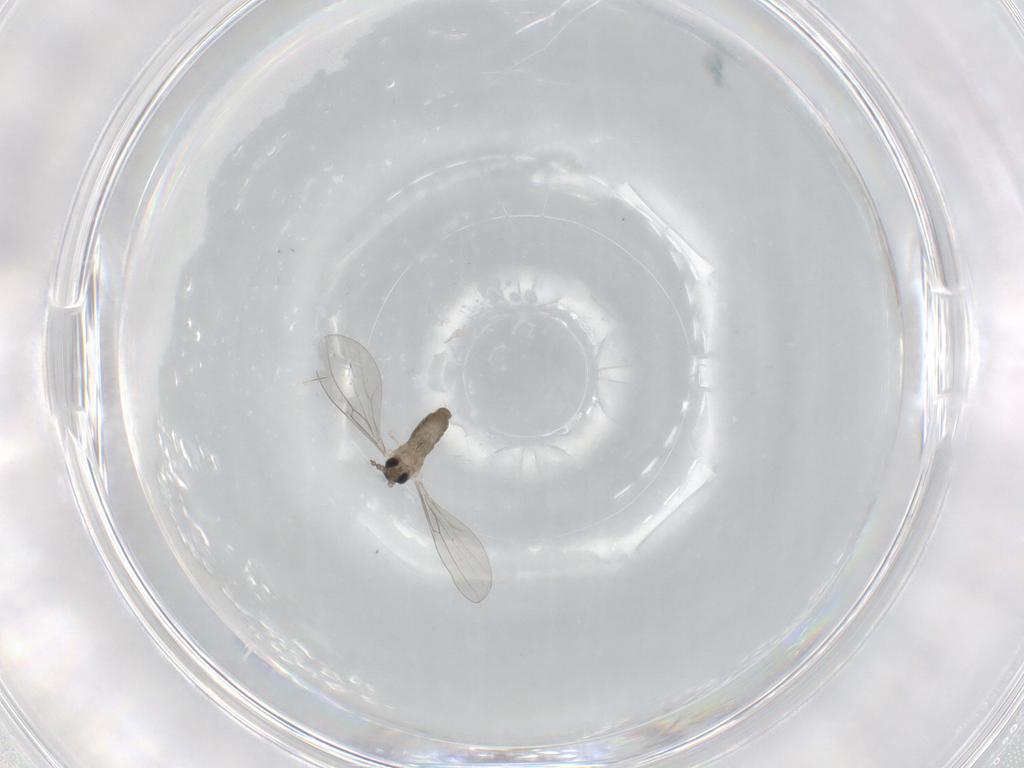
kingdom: Animalia
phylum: Arthropoda
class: Insecta
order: Diptera
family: Cecidomyiidae
